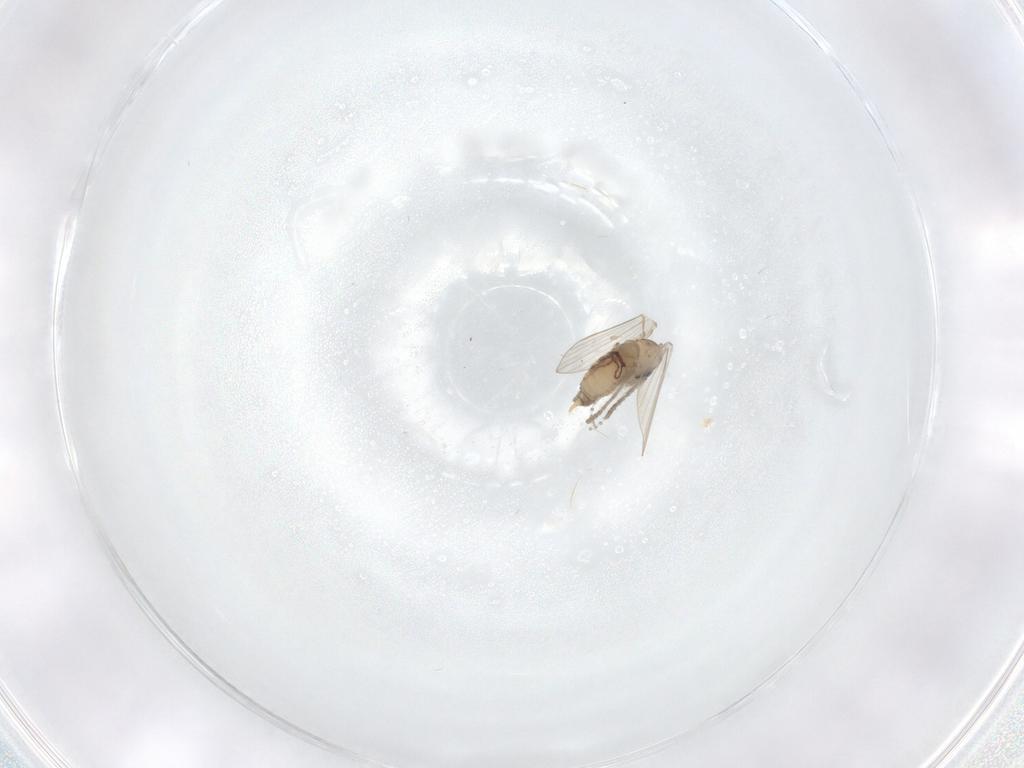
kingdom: Animalia
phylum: Arthropoda
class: Insecta
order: Diptera
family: Psychodidae
